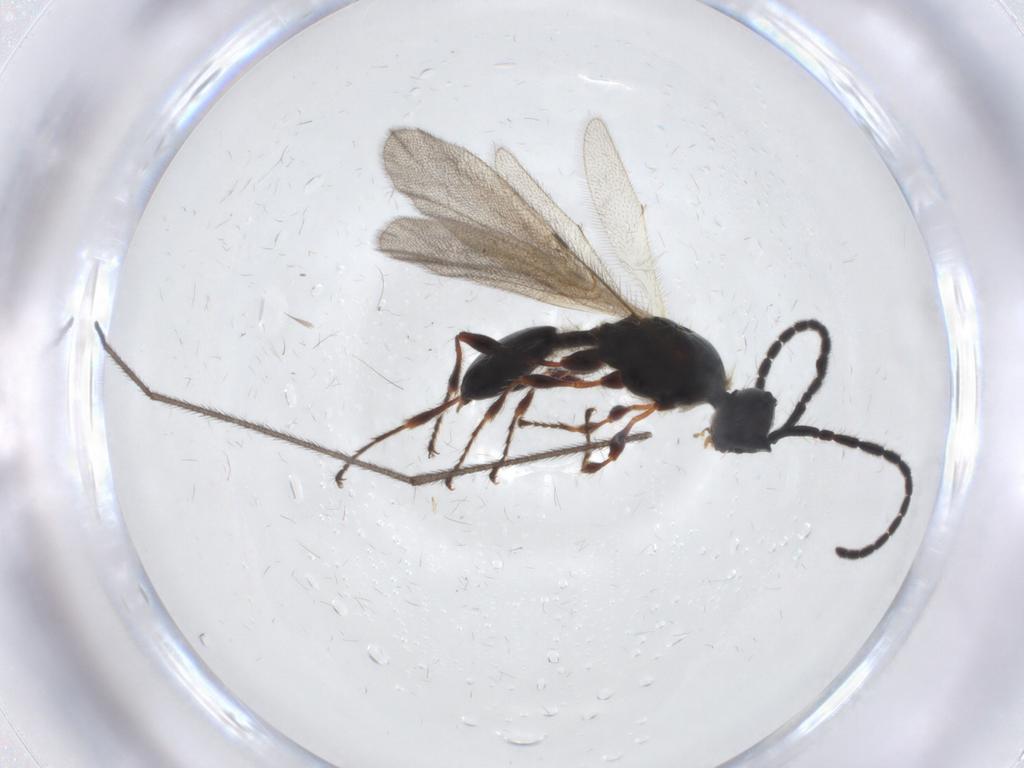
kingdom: Animalia
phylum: Arthropoda
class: Insecta
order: Hymenoptera
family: Diapriidae
